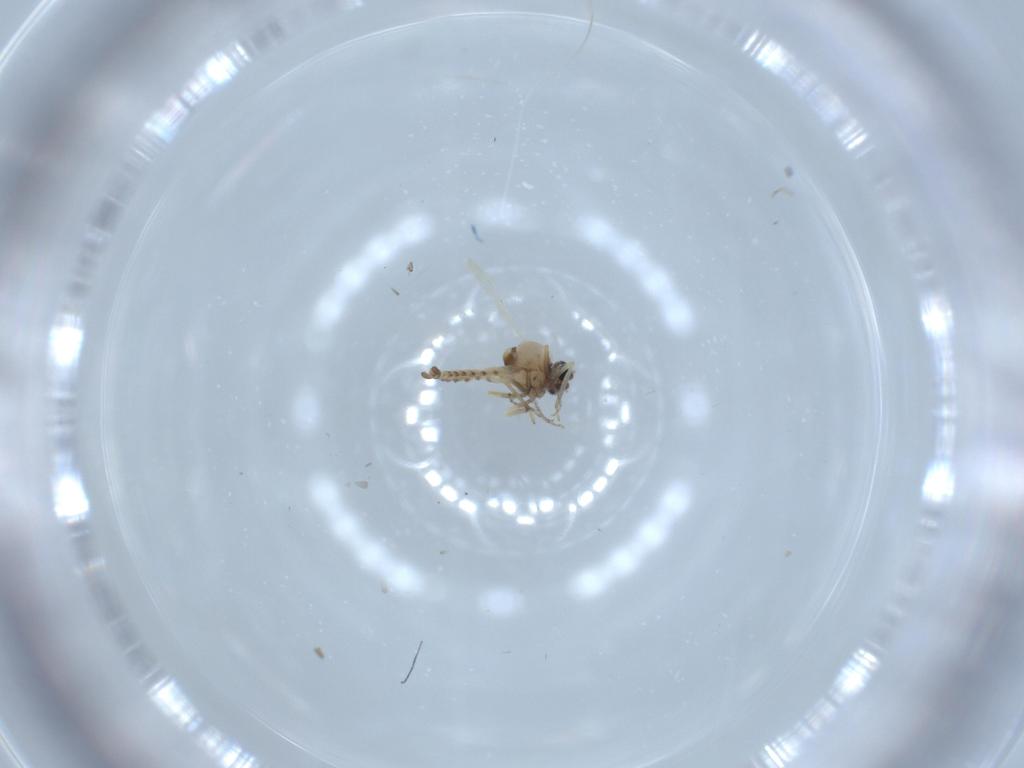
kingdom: Animalia
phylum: Arthropoda
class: Insecta
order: Diptera
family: Ceratopogonidae
